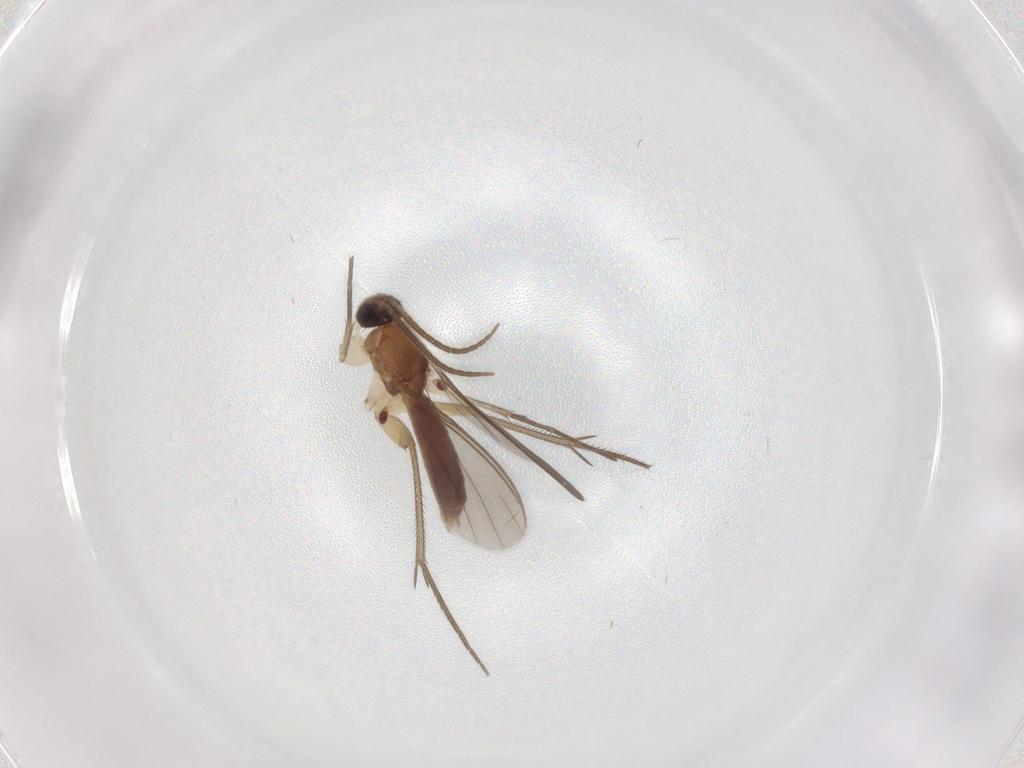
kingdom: Animalia
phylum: Arthropoda
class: Insecta
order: Diptera
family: Mycetophilidae
